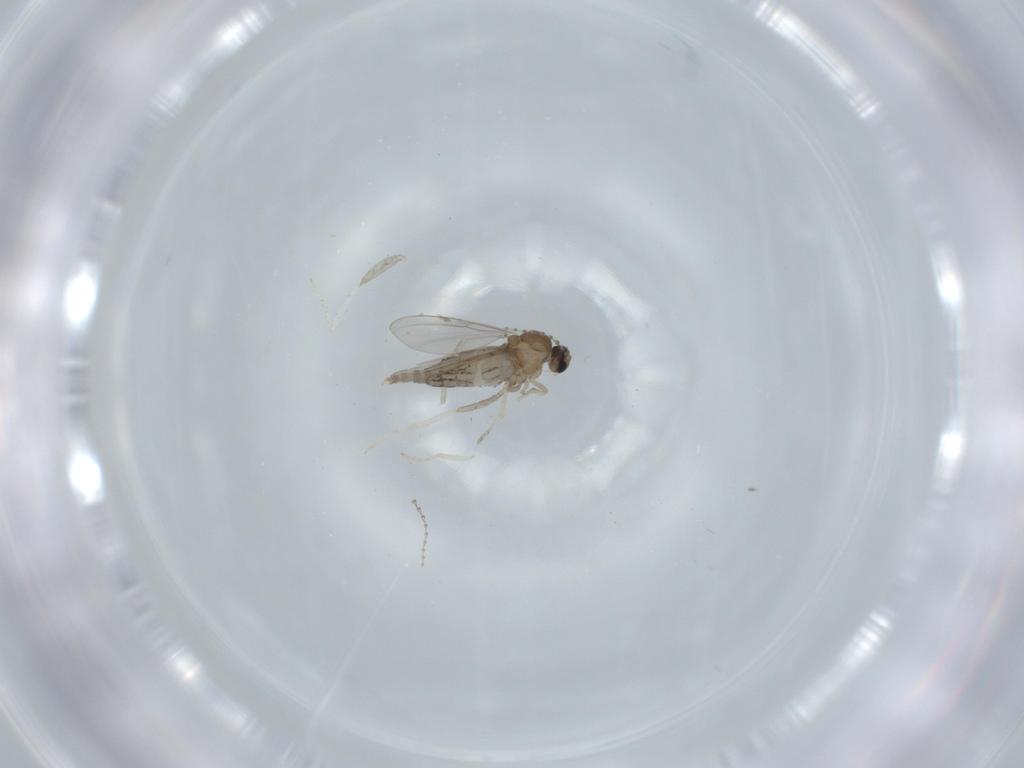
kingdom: Animalia
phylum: Arthropoda
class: Insecta
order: Diptera
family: Cecidomyiidae
